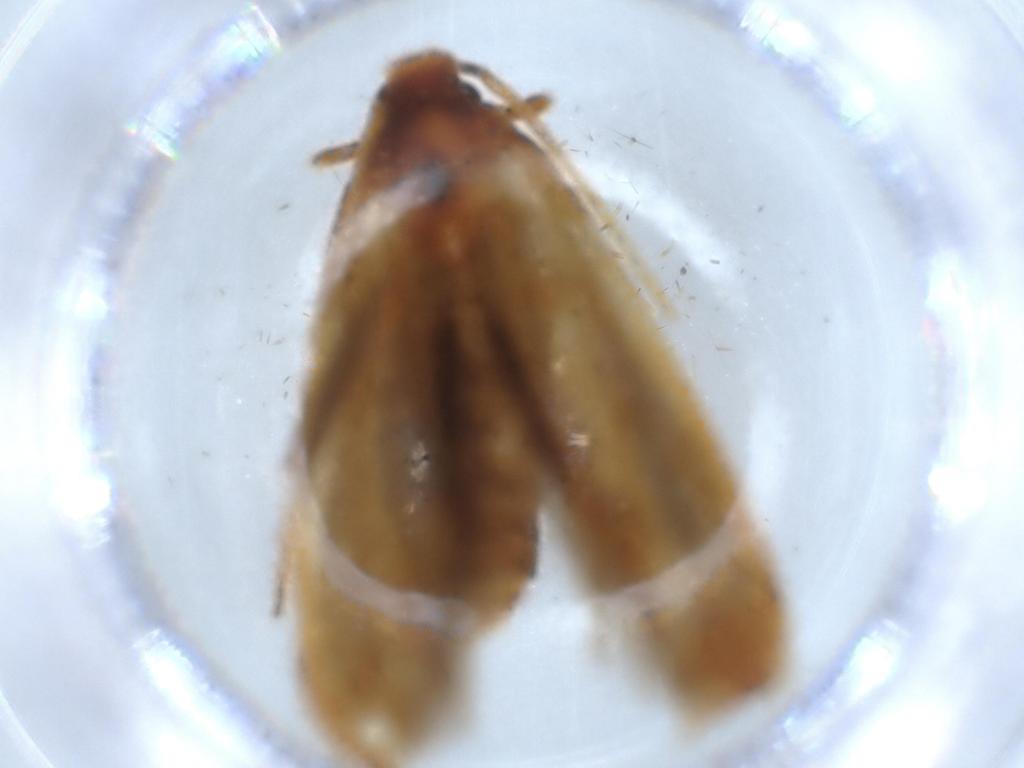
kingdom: Animalia
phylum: Arthropoda
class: Insecta
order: Lepidoptera
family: Tineidae
